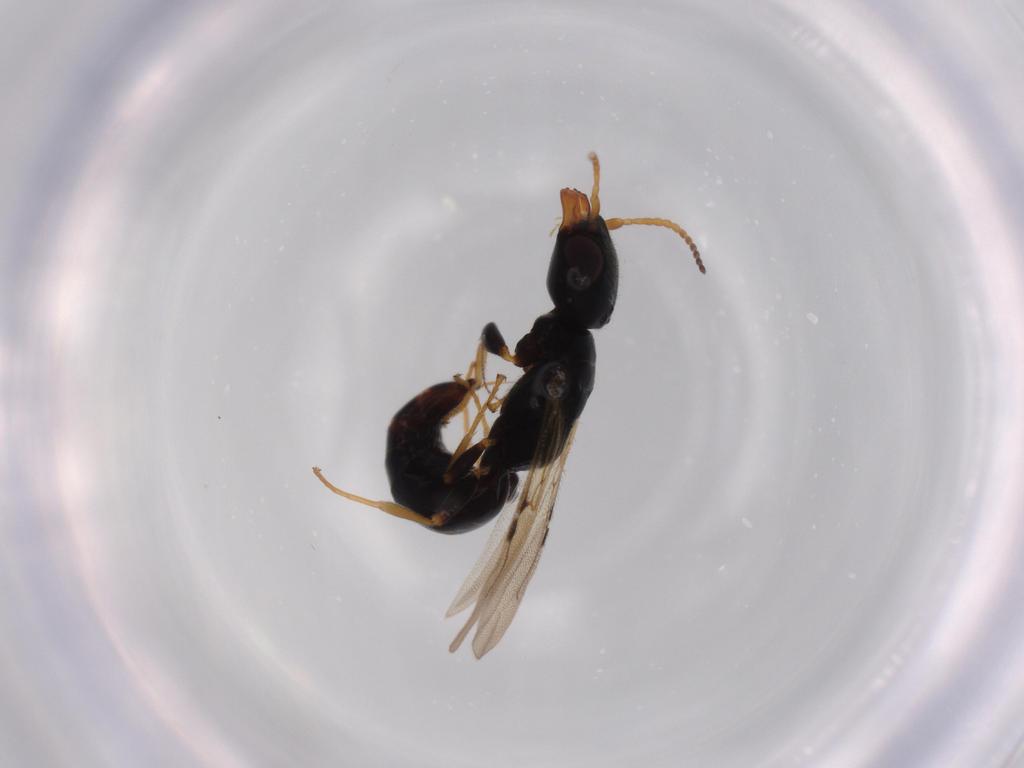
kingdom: Animalia
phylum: Arthropoda
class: Insecta
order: Hymenoptera
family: Bethylidae
